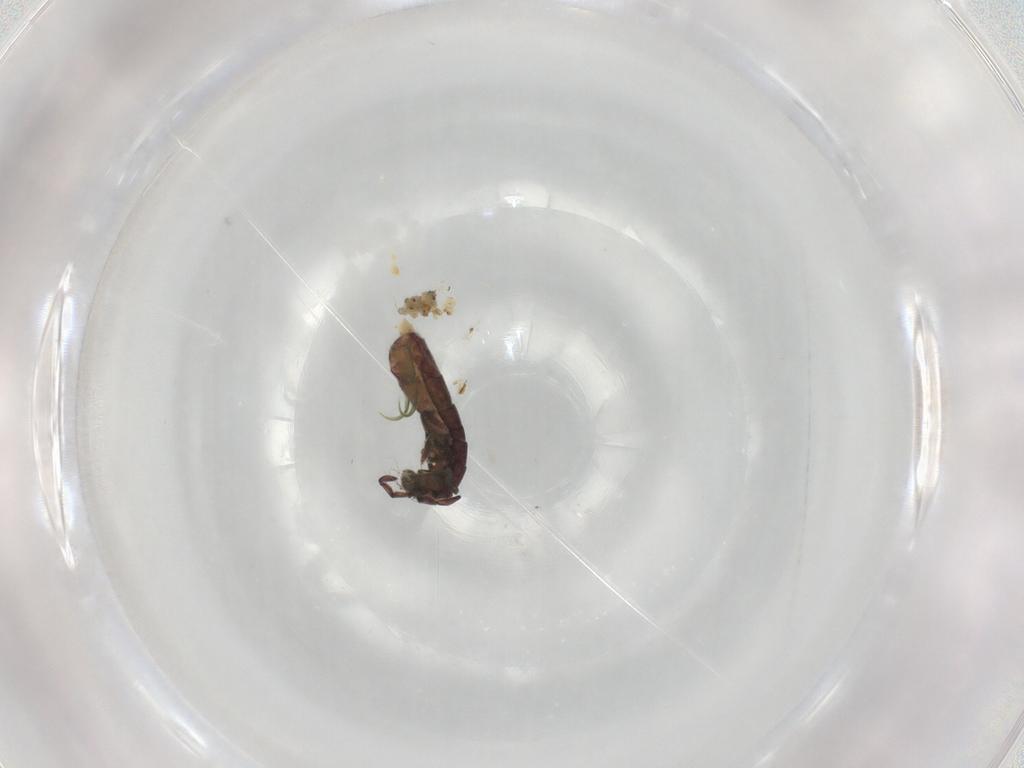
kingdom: Animalia
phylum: Arthropoda
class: Collembola
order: Entomobryomorpha
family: Isotomidae
